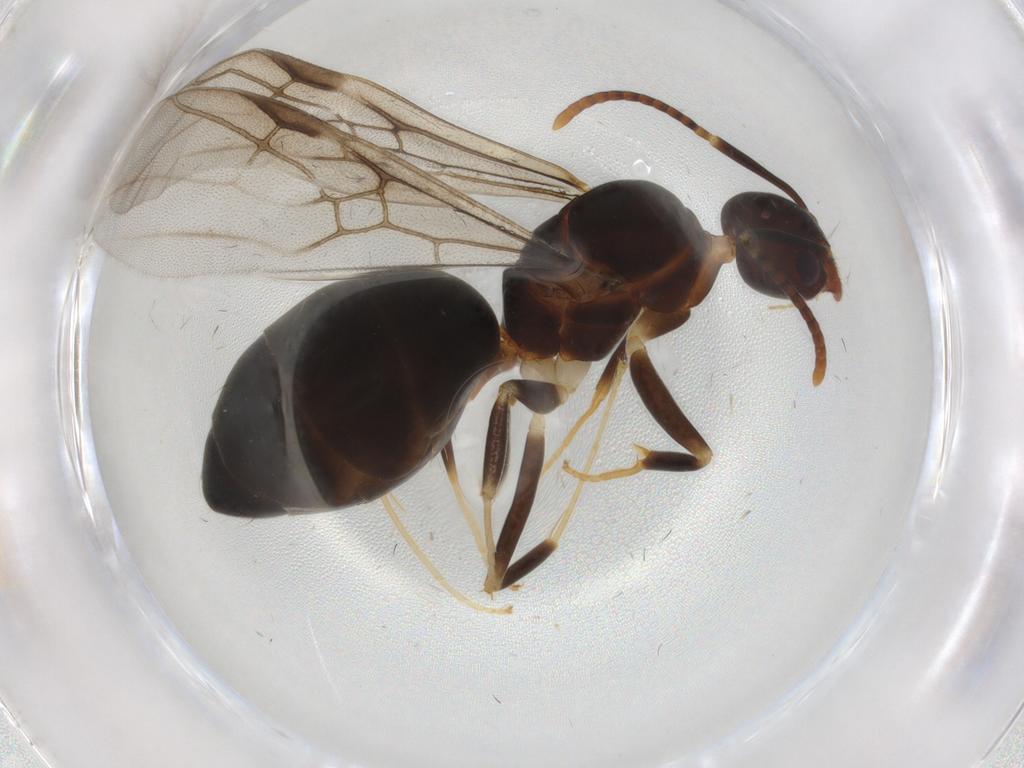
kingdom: Animalia
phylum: Arthropoda
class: Insecta
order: Hymenoptera
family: Formicidae
